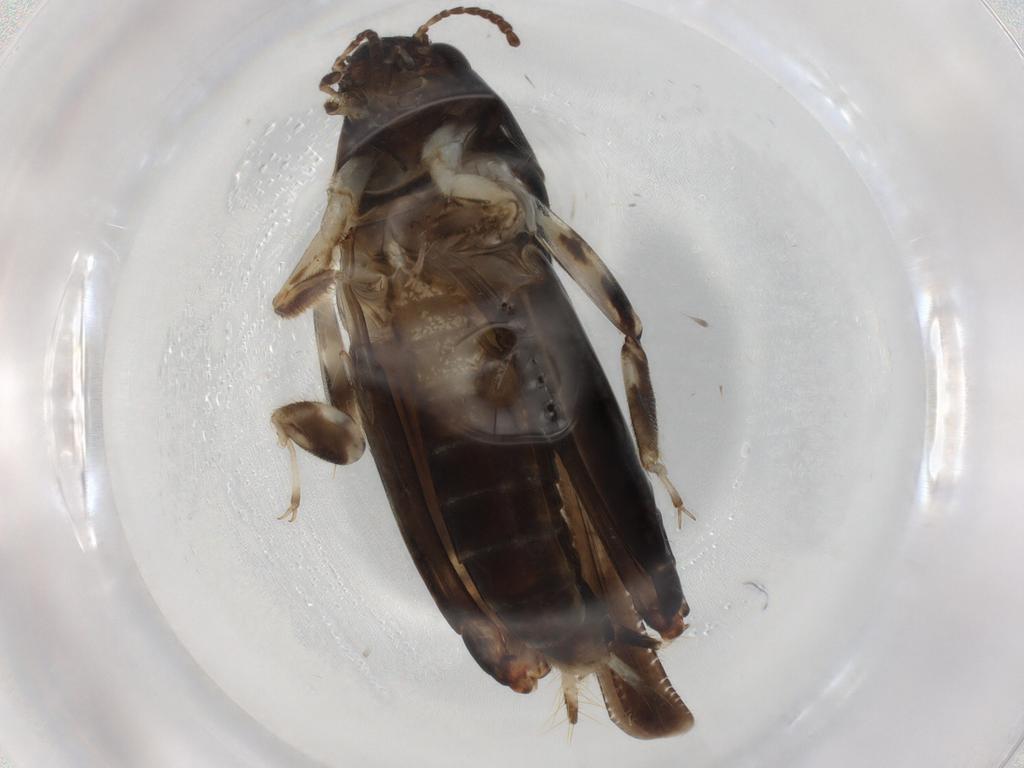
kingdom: Animalia
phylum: Arthropoda
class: Insecta
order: Orthoptera
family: Tridactylidae
